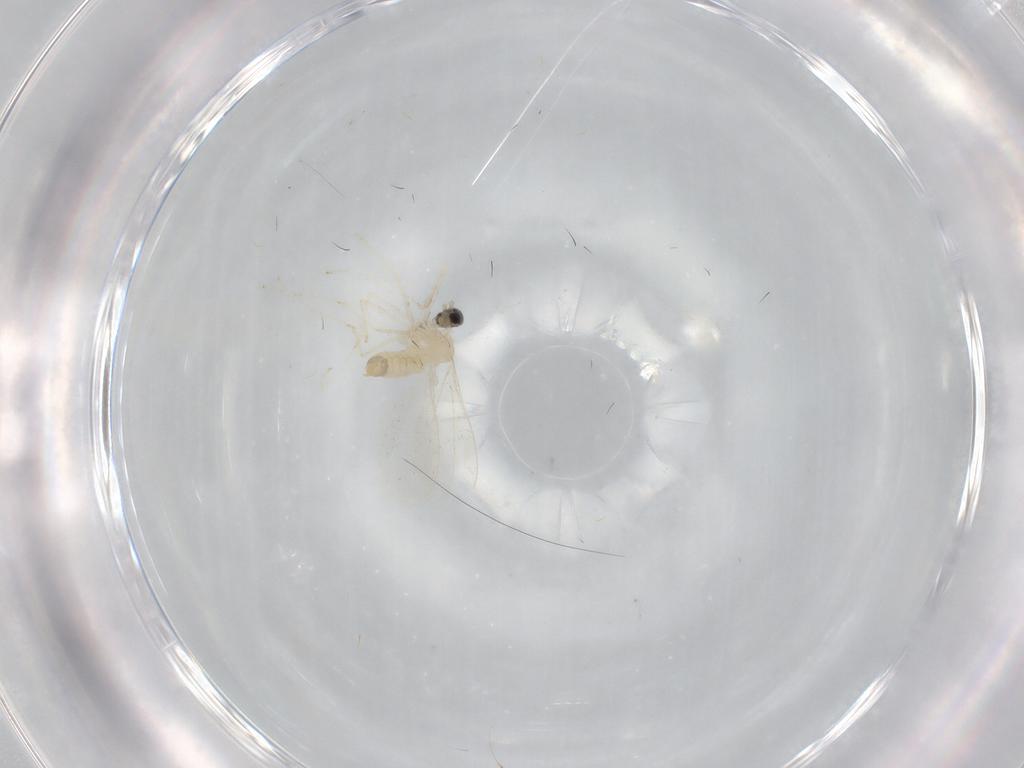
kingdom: Animalia
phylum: Arthropoda
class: Insecta
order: Diptera
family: Cecidomyiidae
